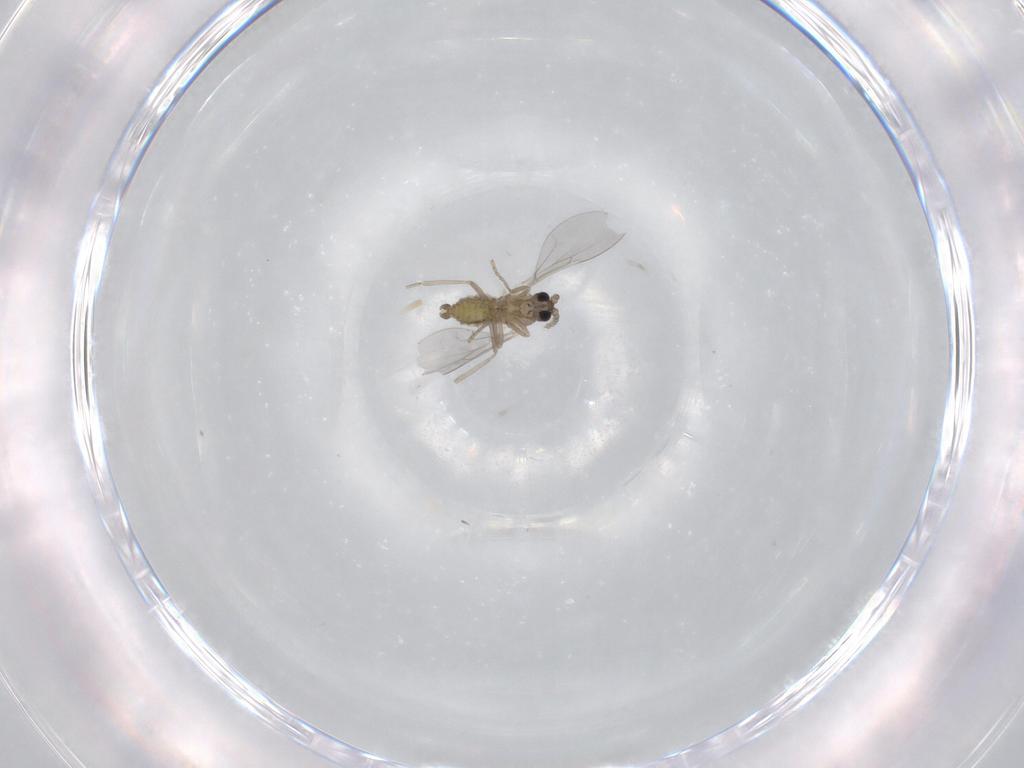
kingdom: Animalia
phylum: Arthropoda
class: Insecta
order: Diptera
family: Cecidomyiidae
